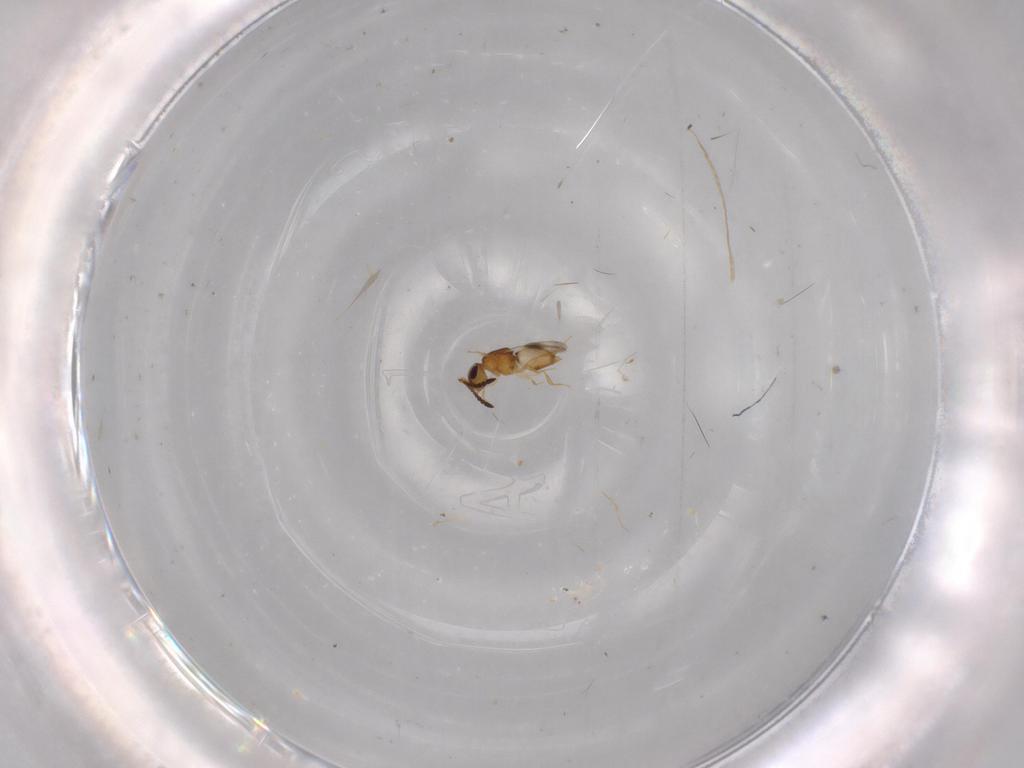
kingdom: Animalia
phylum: Arthropoda
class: Insecta
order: Hymenoptera
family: Ceraphronidae
